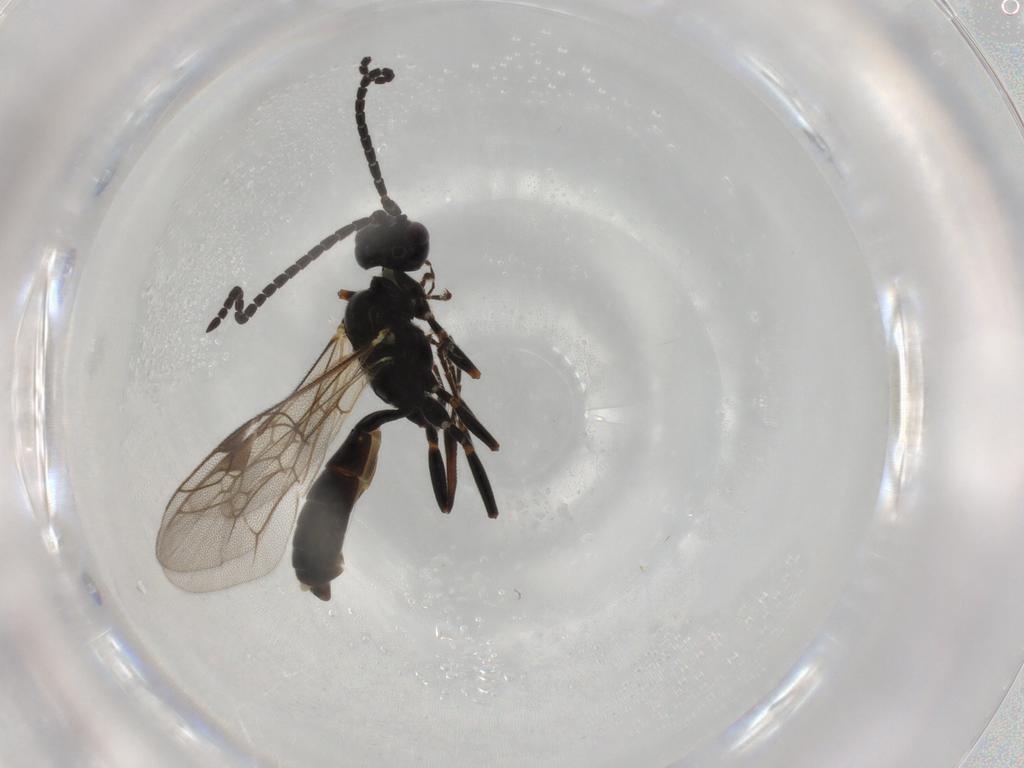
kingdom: Animalia
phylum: Arthropoda
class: Insecta
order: Hymenoptera
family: Ichneumonidae
